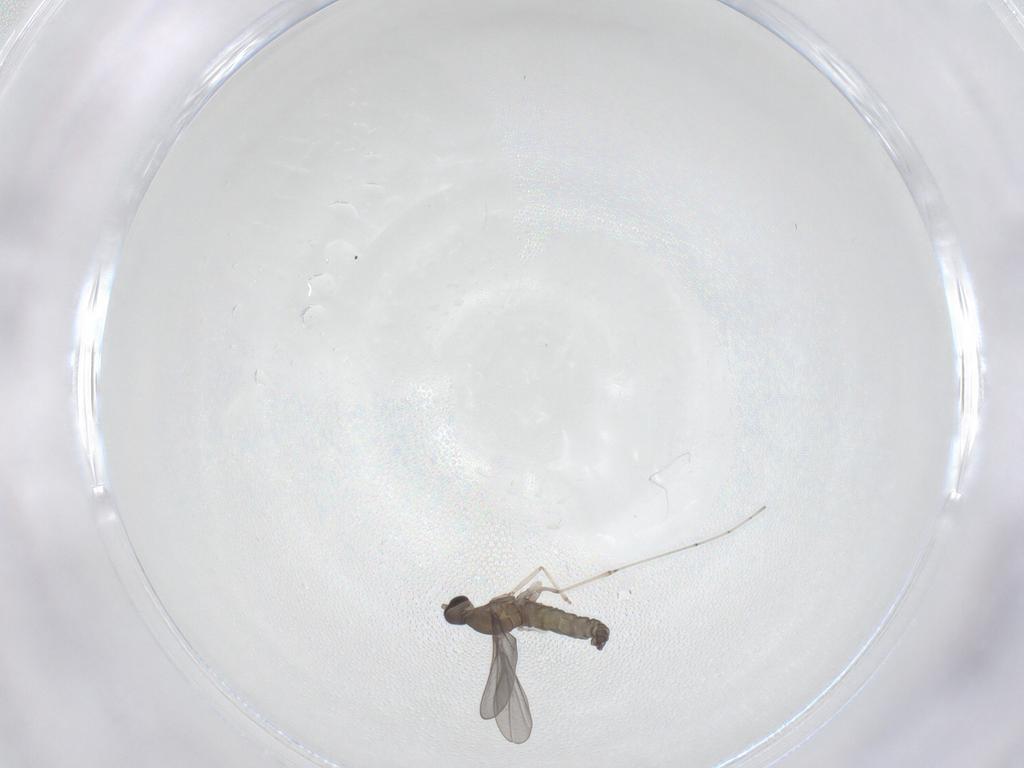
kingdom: Animalia
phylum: Arthropoda
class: Insecta
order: Diptera
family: Cecidomyiidae
